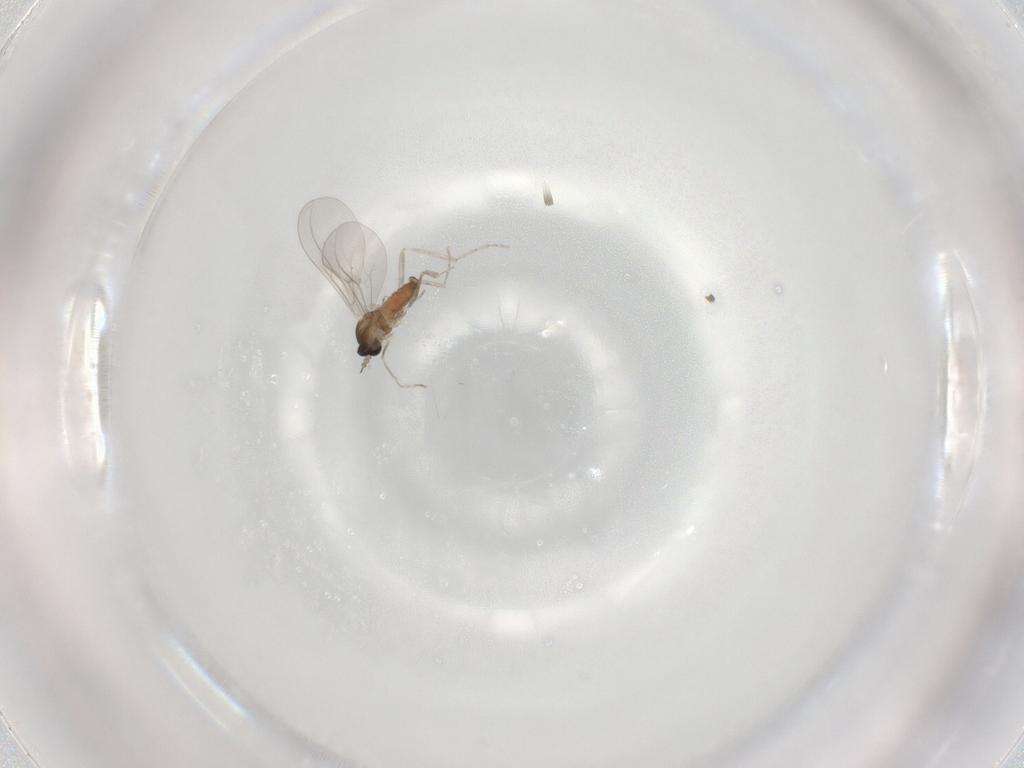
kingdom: Animalia
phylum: Arthropoda
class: Insecta
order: Diptera
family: Cecidomyiidae
